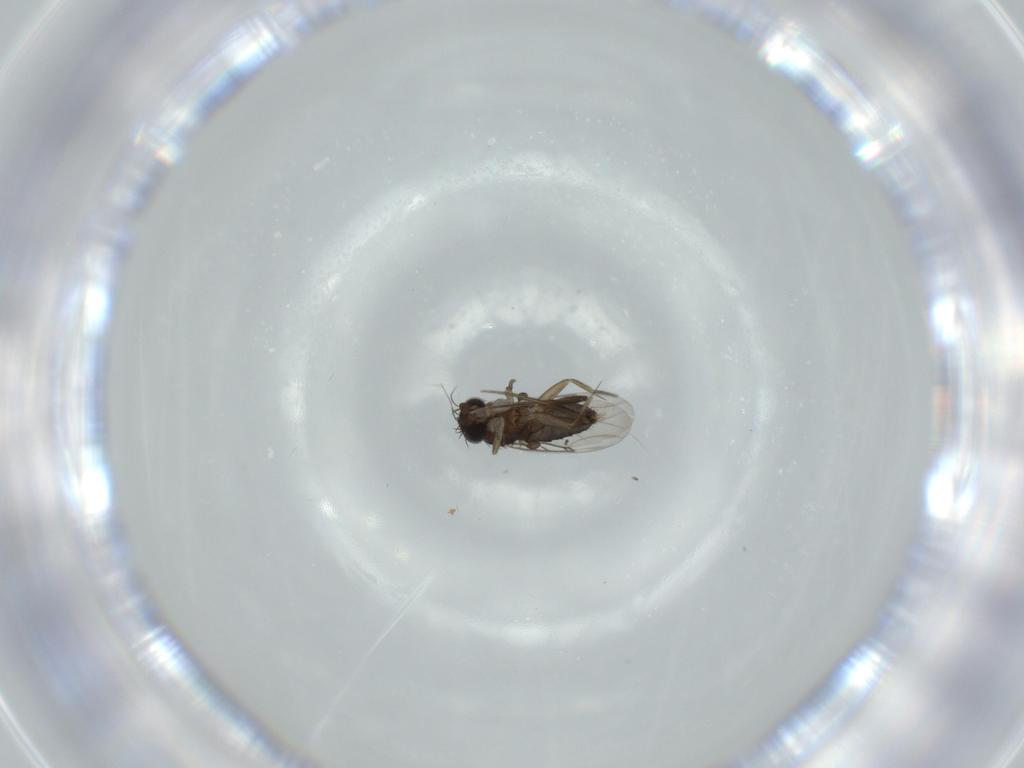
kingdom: Animalia
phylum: Arthropoda
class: Insecta
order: Diptera
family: Phoridae
